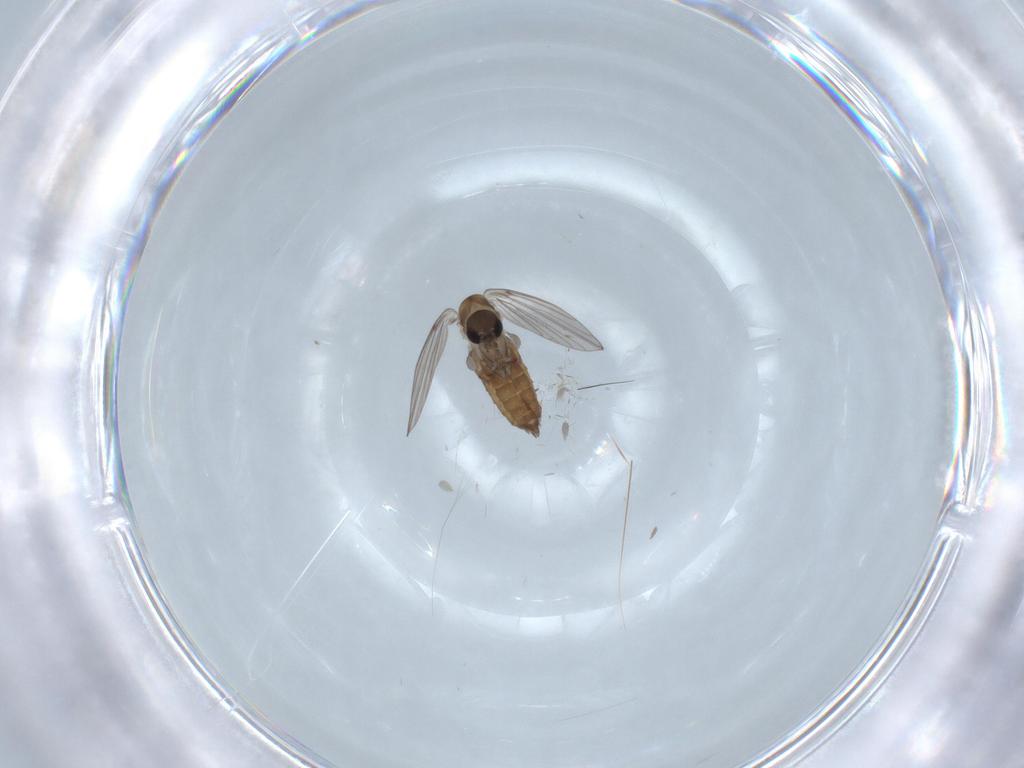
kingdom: Animalia
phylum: Arthropoda
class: Insecta
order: Diptera
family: Psychodidae
